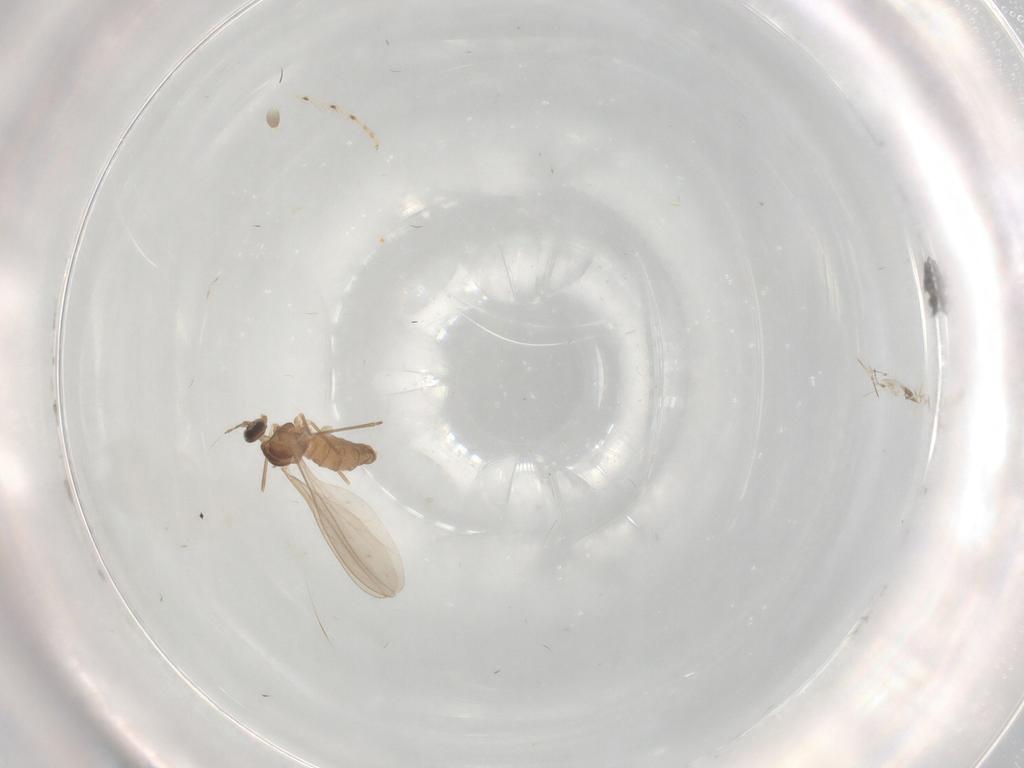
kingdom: Animalia
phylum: Arthropoda
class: Insecta
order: Diptera
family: Cecidomyiidae
